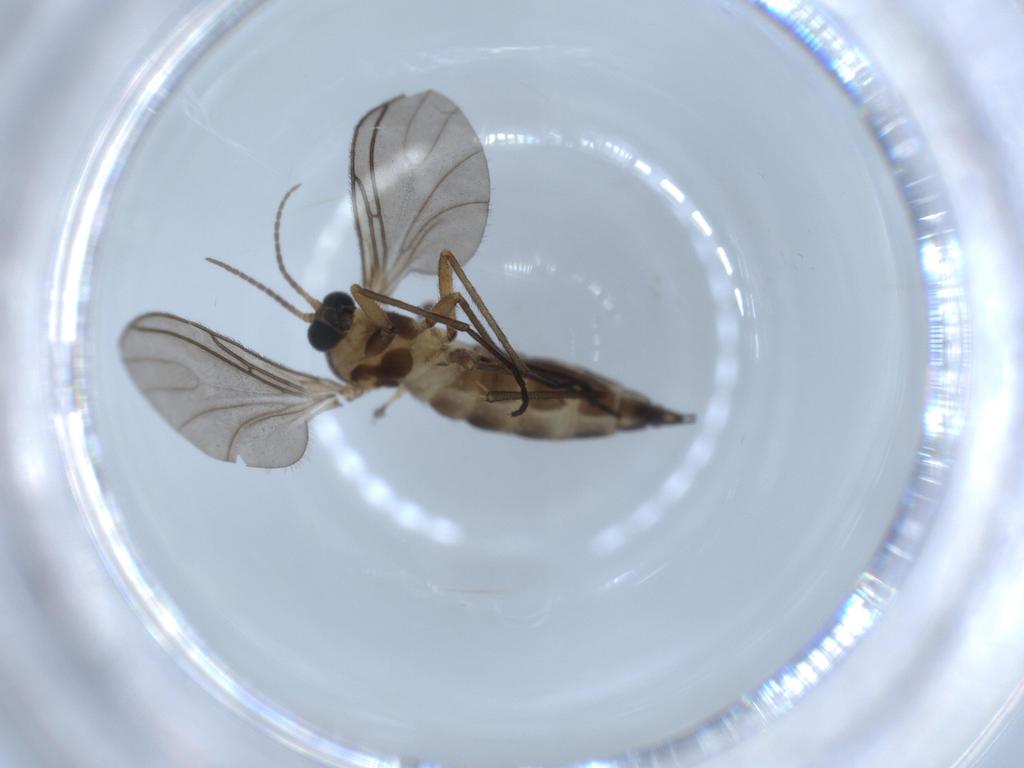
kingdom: Animalia
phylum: Arthropoda
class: Insecta
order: Diptera
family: Sciaridae
